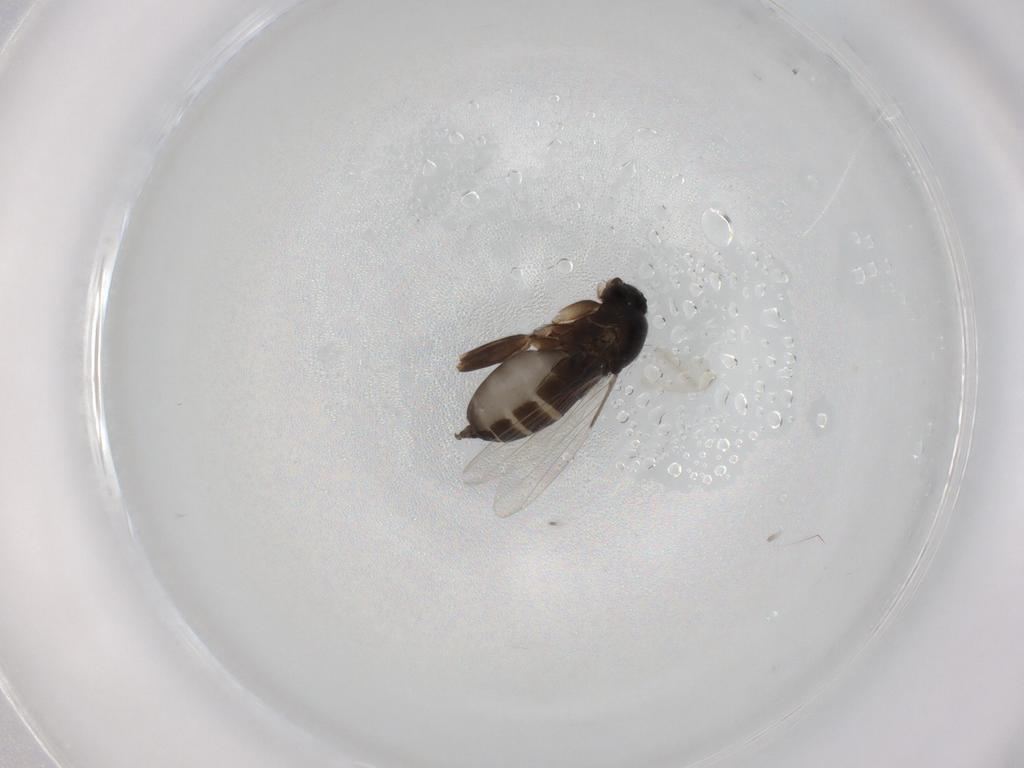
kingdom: Animalia
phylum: Arthropoda
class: Insecta
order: Diptera
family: Phoridae
